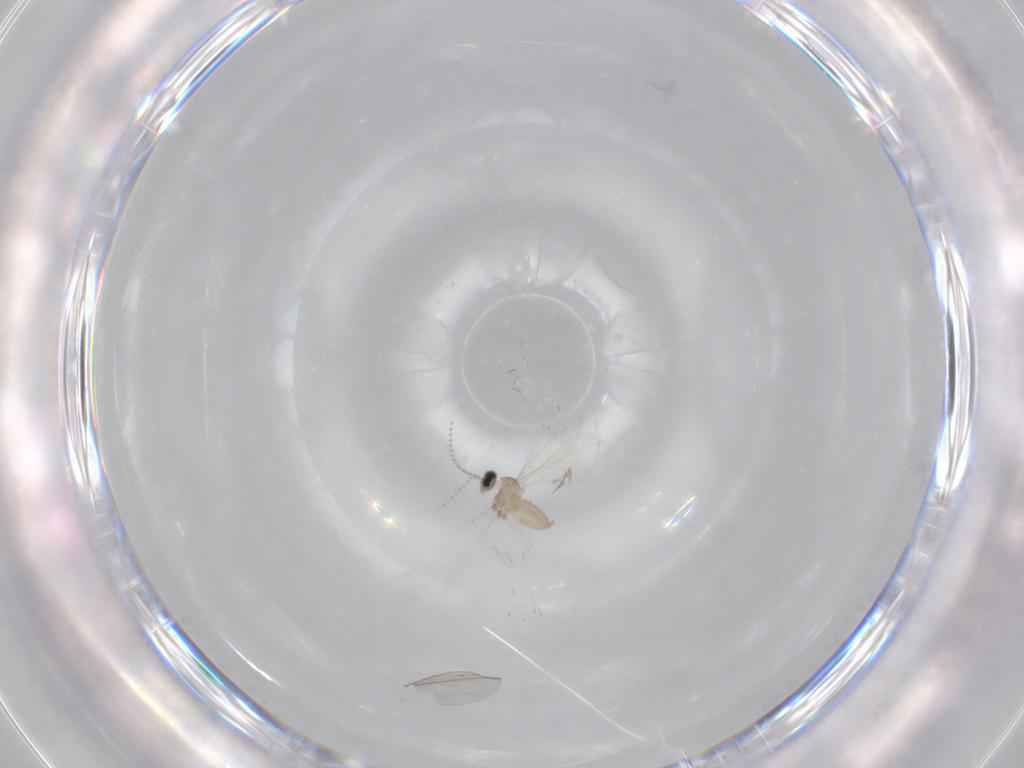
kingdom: Animalia
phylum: Arthropoda
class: Insecta
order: Diptera
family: Cecidomyiidae
